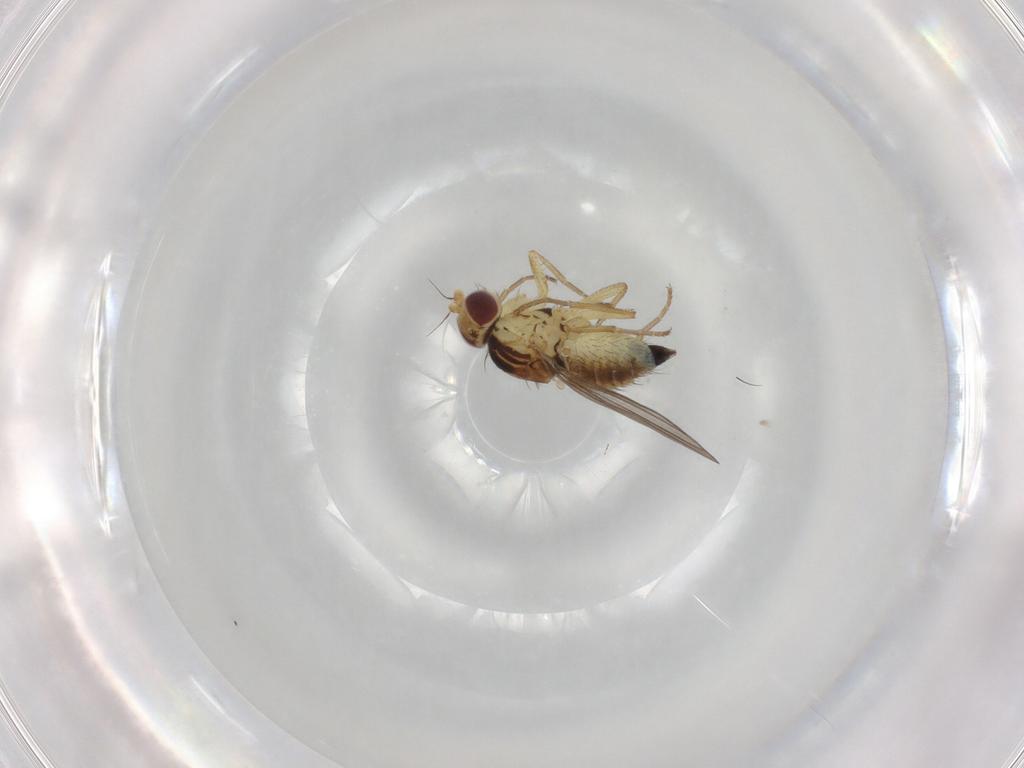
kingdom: Animalia
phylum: Arthropoda
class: Insecta
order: Diptera
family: Agromyzidae
